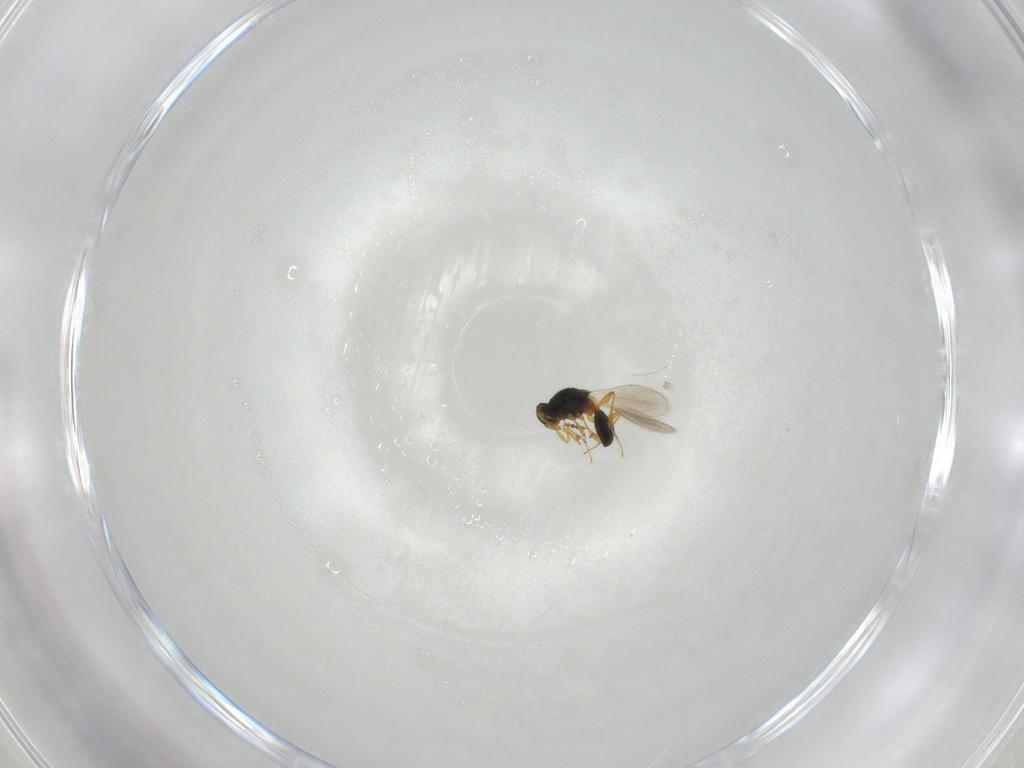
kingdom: Animalia
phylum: Arthropoda
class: Insecta
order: Hymenoptera
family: Platygastridae
